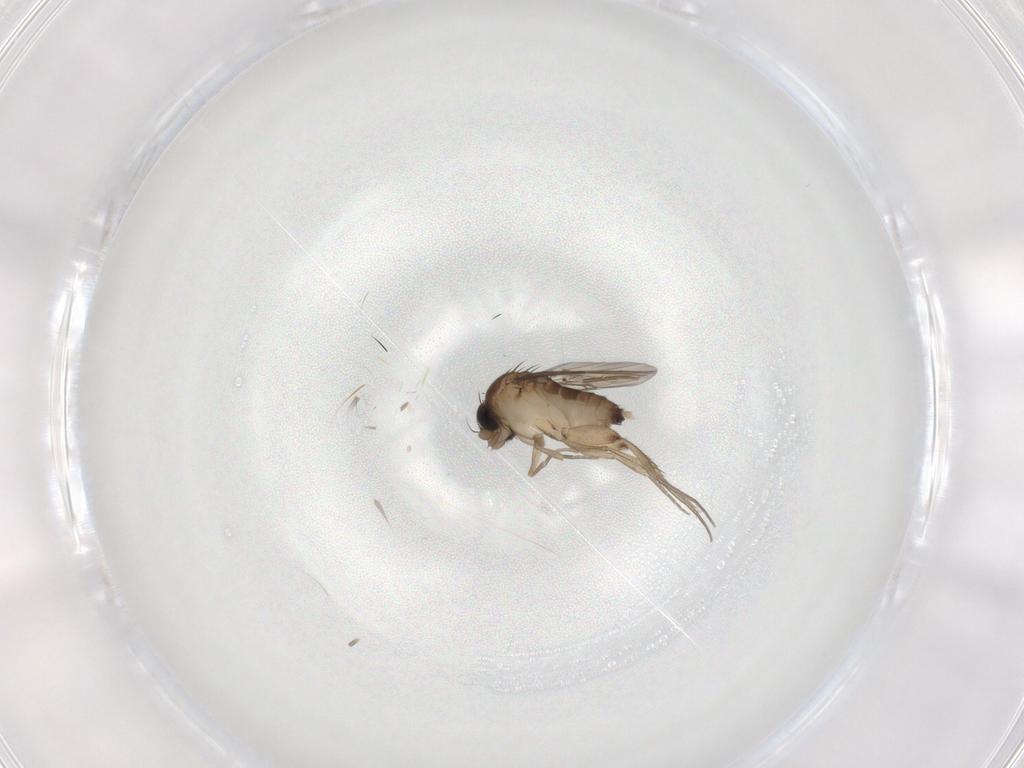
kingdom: Animalia
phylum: Arthropoda
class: Insecta
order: Diptera
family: Phoridae
